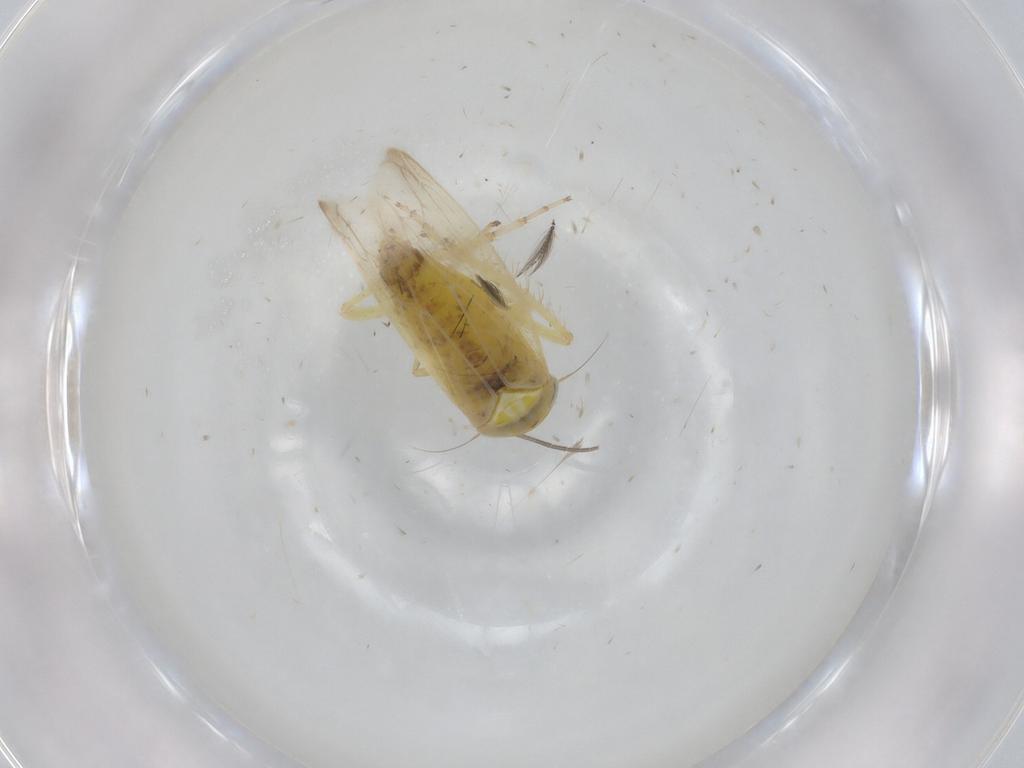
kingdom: Animalia
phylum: Arthropoda
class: Insecta
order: Hemiptera
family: Cicadellidae
